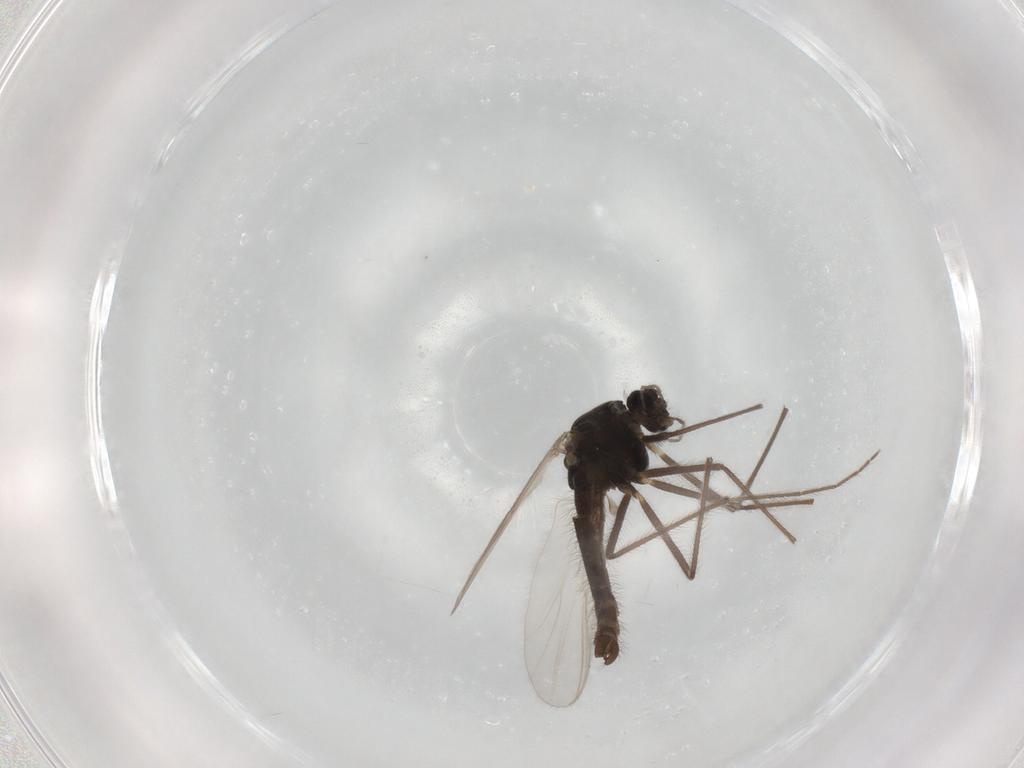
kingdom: Animalia
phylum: Arthropoda
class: Insecta
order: Diptera
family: Chironomidae
